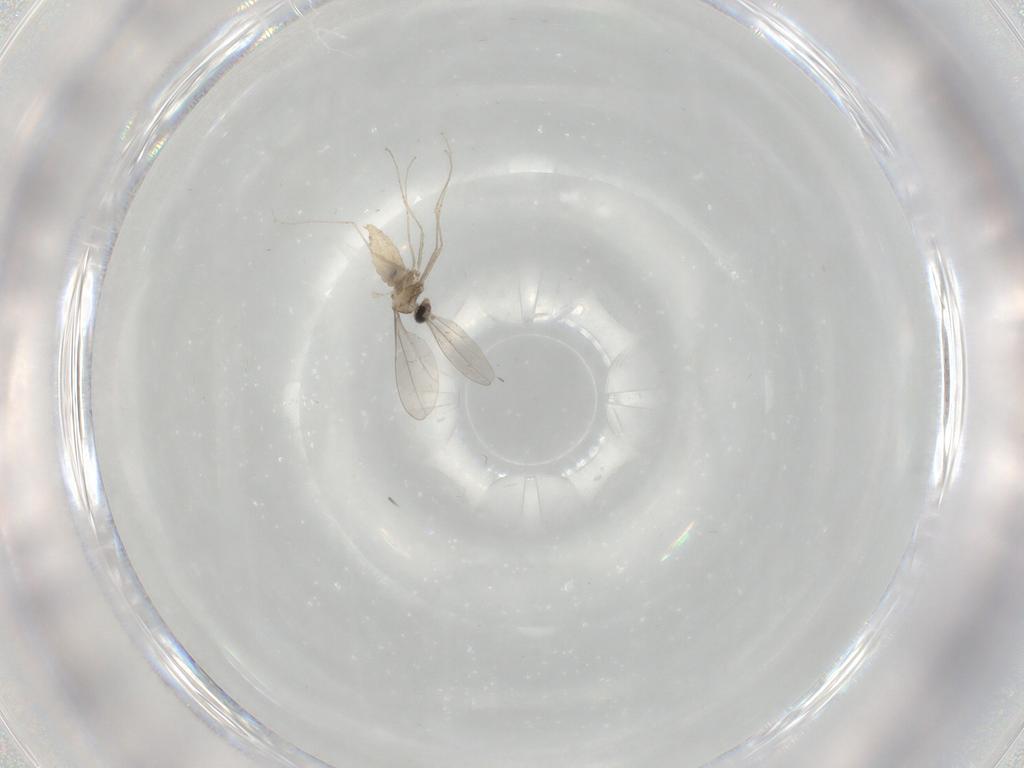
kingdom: Animalia
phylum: Arthropoda
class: Insecta
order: Diptera
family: Cecidomyiidae
